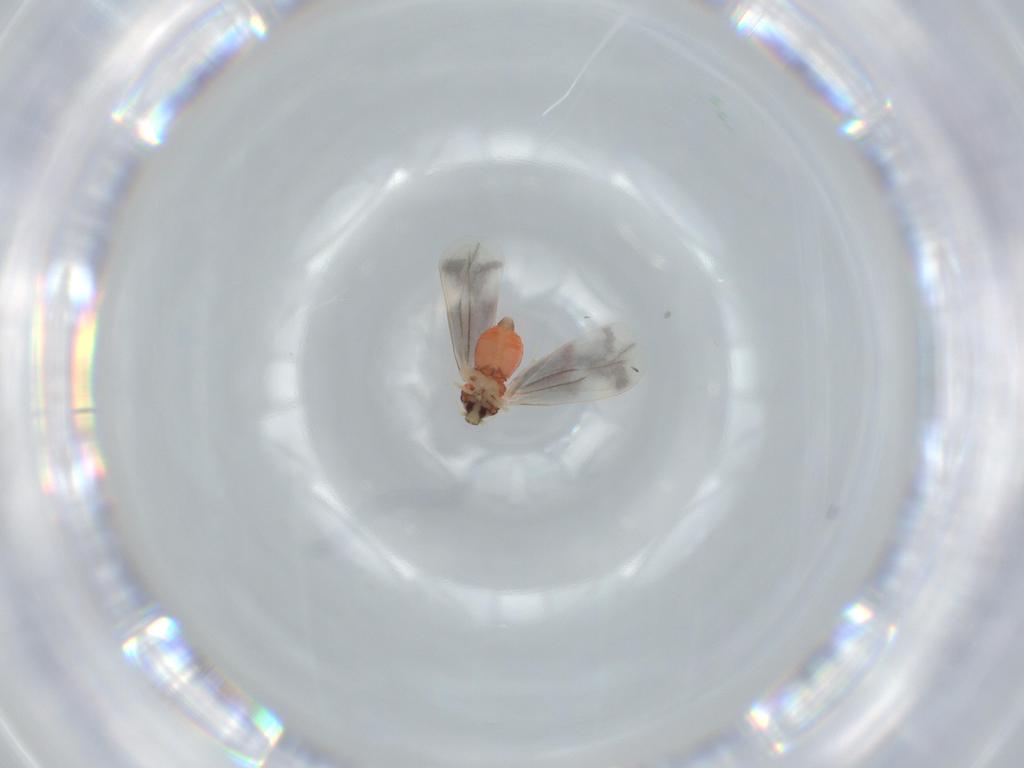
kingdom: Animalia
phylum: Arthropoda
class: Insecta
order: Hemiptera
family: Aleyrodidae
